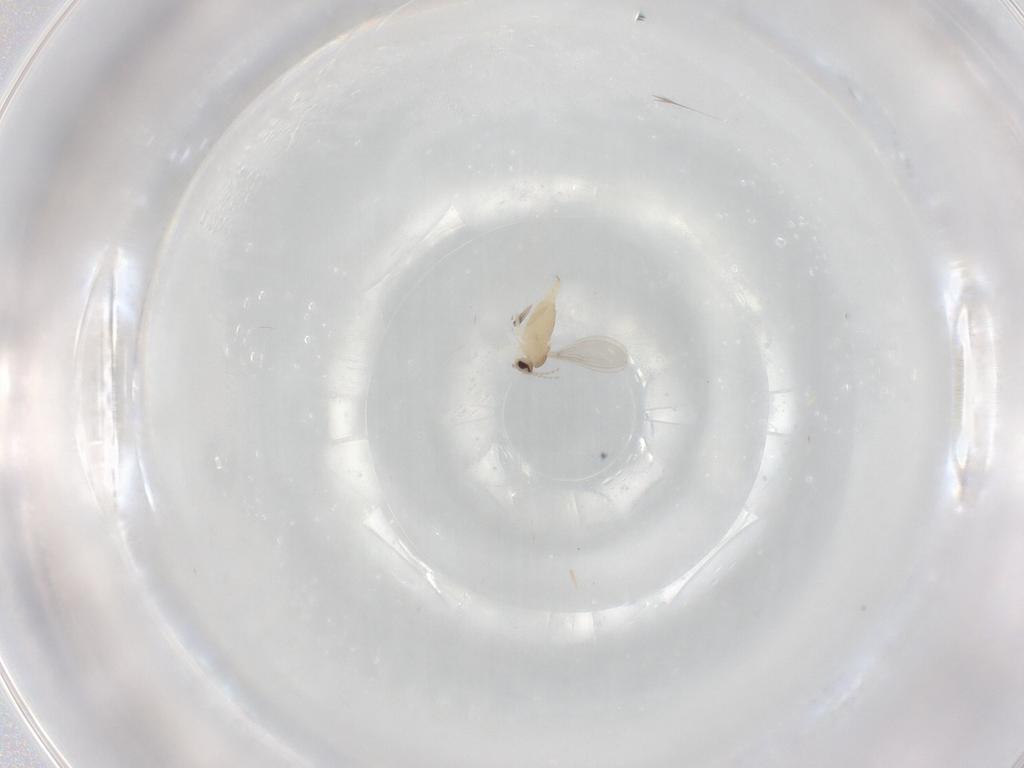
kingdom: Animalia
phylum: Arthropoda
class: Insecta
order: Diptera
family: Cecidomyiidae
